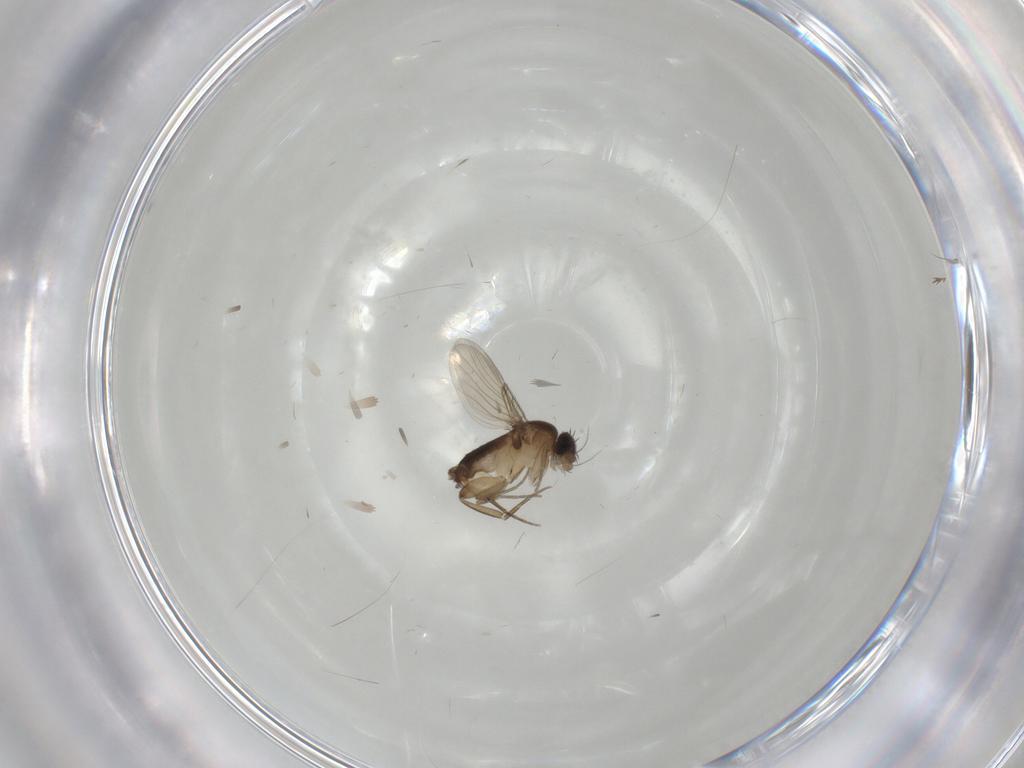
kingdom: Animalia
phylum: Arthropoda
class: Insecta
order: Diptera
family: Phoridae
